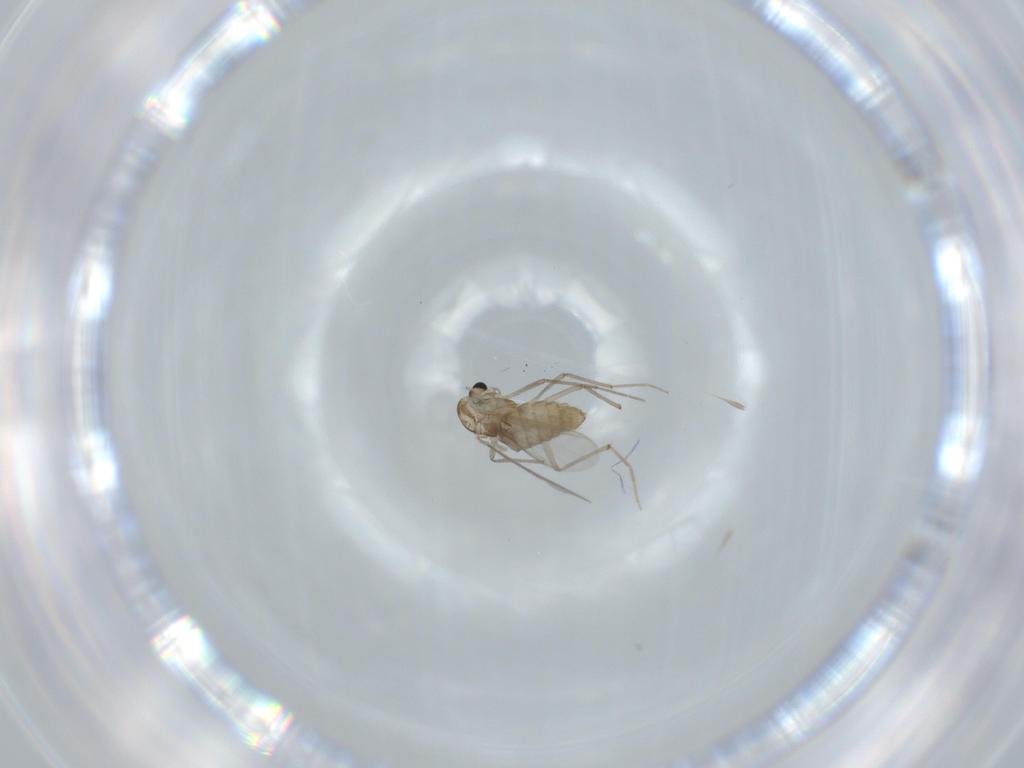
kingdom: Animalia
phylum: Arthropoda
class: Insecta
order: Diptera
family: Chironomidae
